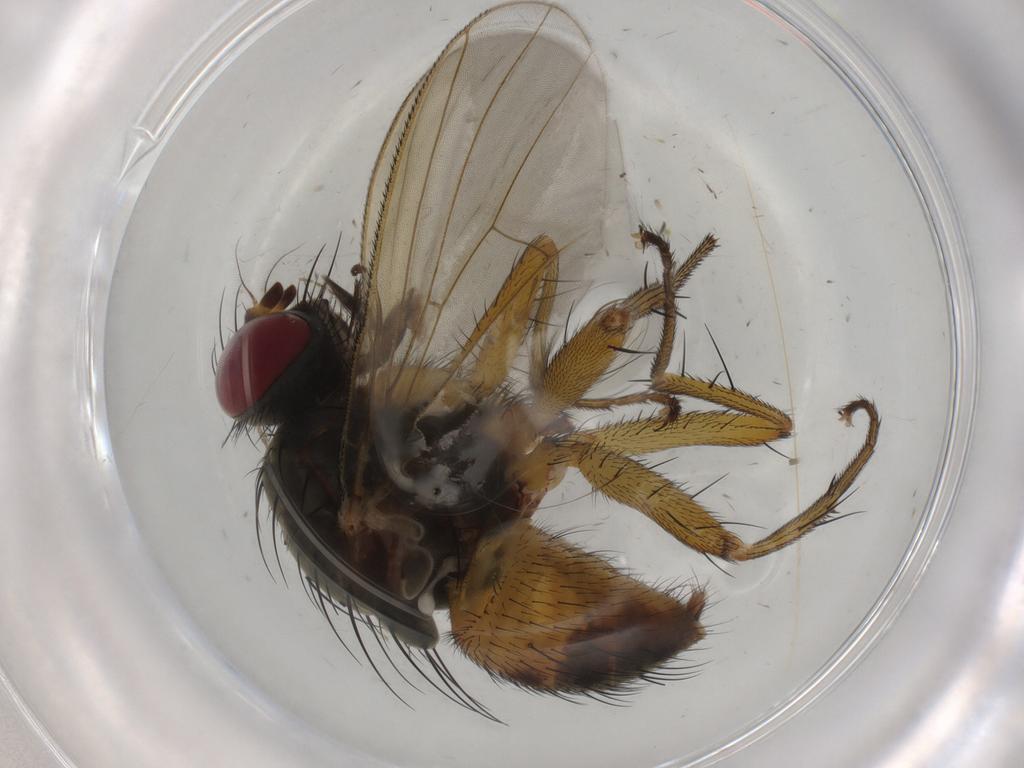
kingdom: Animalia
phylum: Arthropoda
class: Insecta
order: Diptera
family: Muscidae
